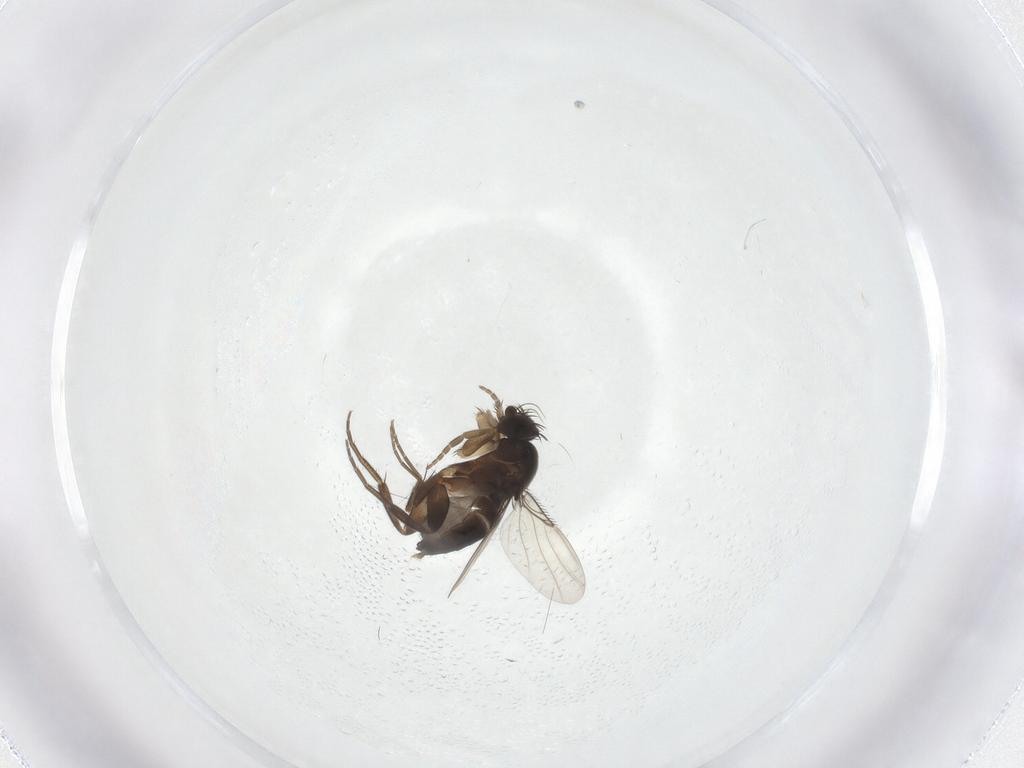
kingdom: Animalia
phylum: Arthropoda
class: Insecta
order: Diptera
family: Phoridae
